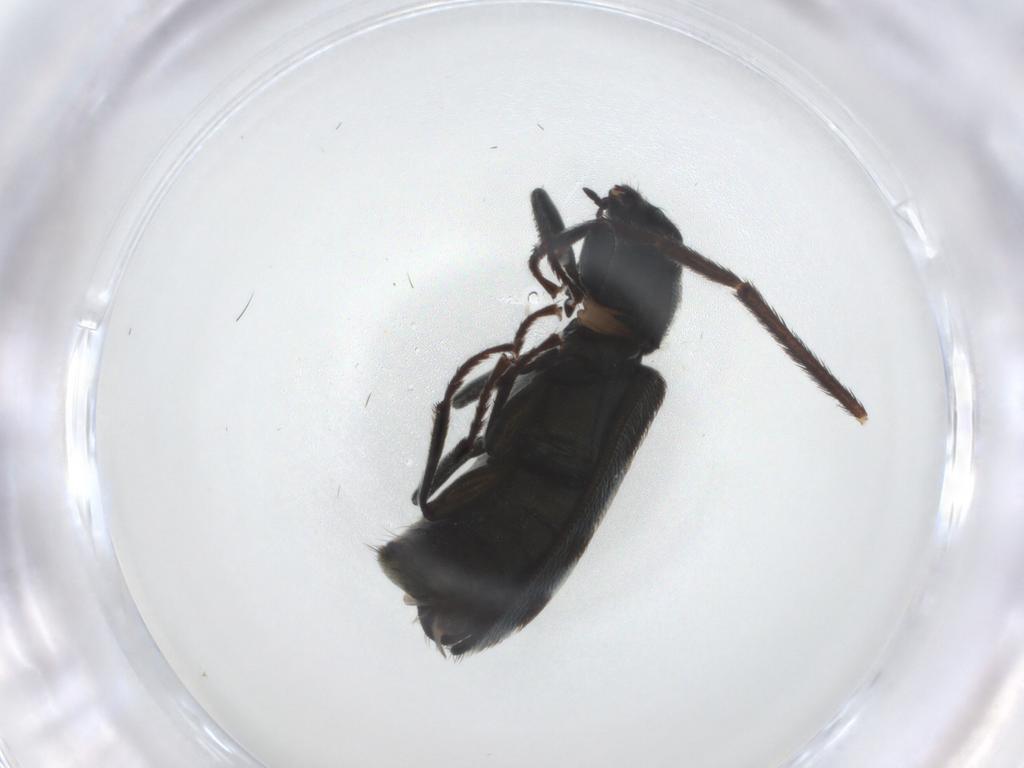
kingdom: Animalia
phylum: Arthropoda
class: Insecta
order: Coleoptera
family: Melyridae
